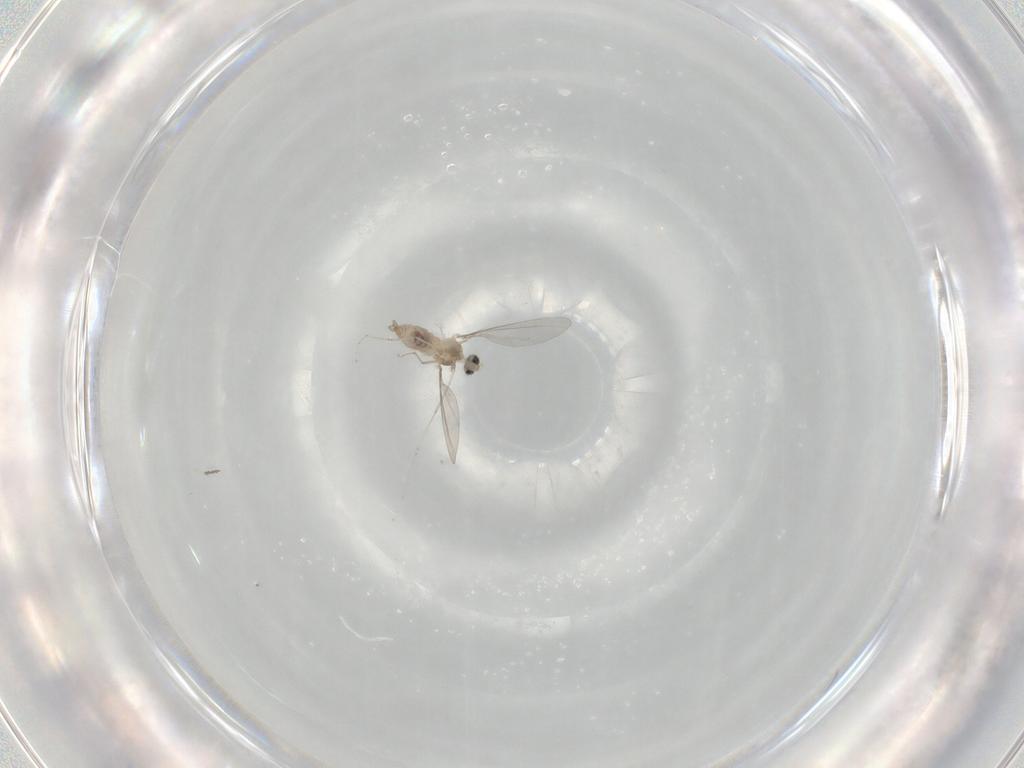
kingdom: Animalia
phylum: Arthropoda
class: Insecta
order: Diptera
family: Cecidomyiidae
